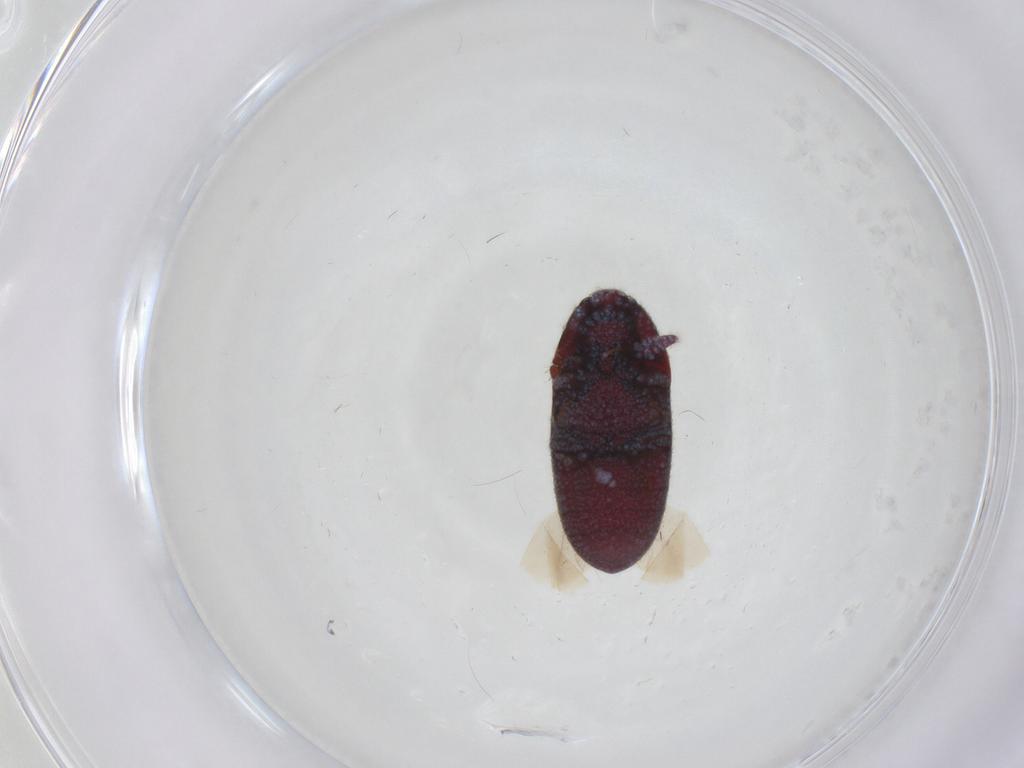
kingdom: Animalia
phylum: Arthropoda
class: Insecta
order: Coleoptera
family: Throscidae
